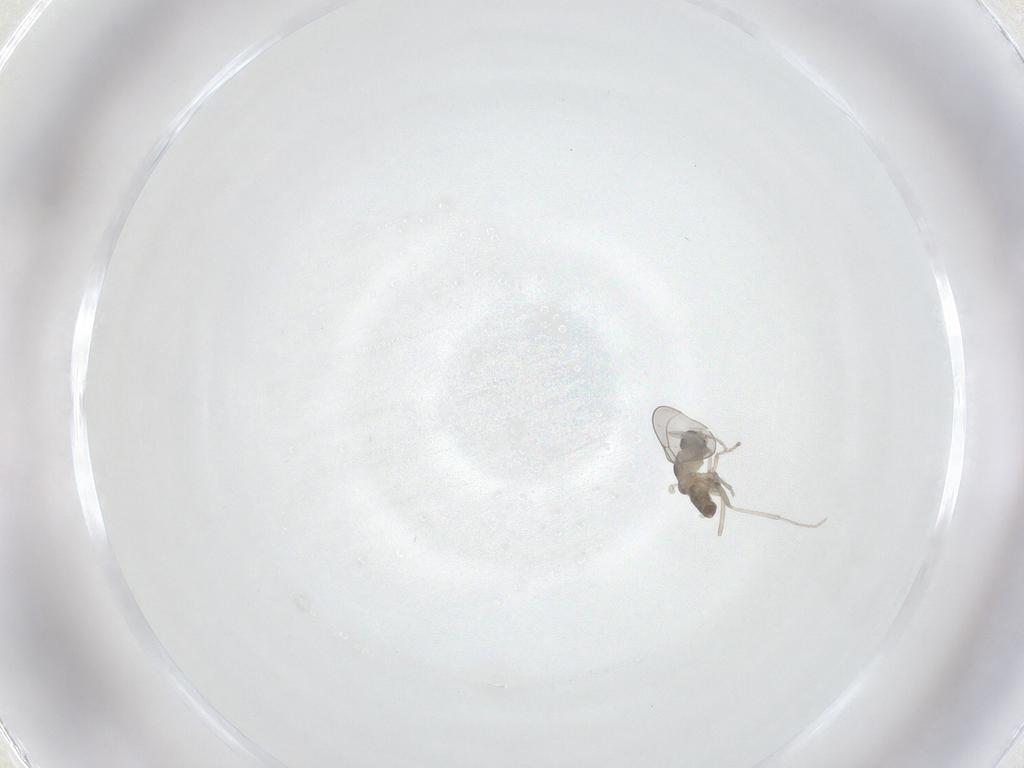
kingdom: Animalia
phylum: Arthropoda
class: Insecta
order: Diptera
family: Cecidomyiidae
